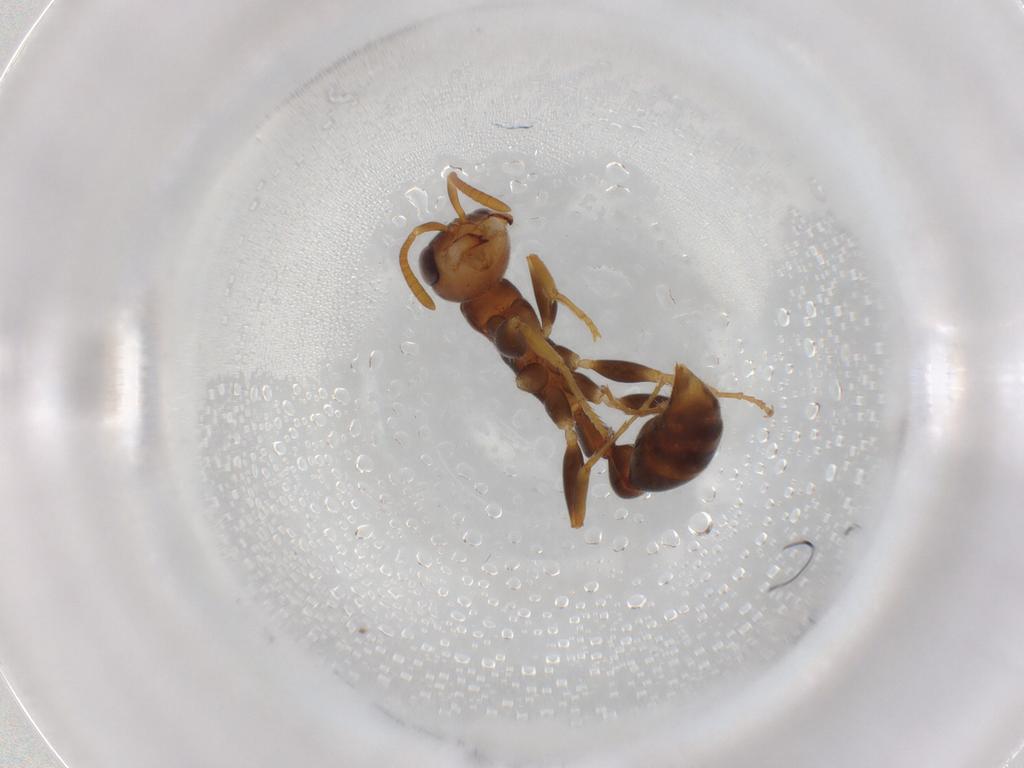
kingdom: Animalia
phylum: Arthropoda
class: Insecta
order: Hymenoptera
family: Formicidae
